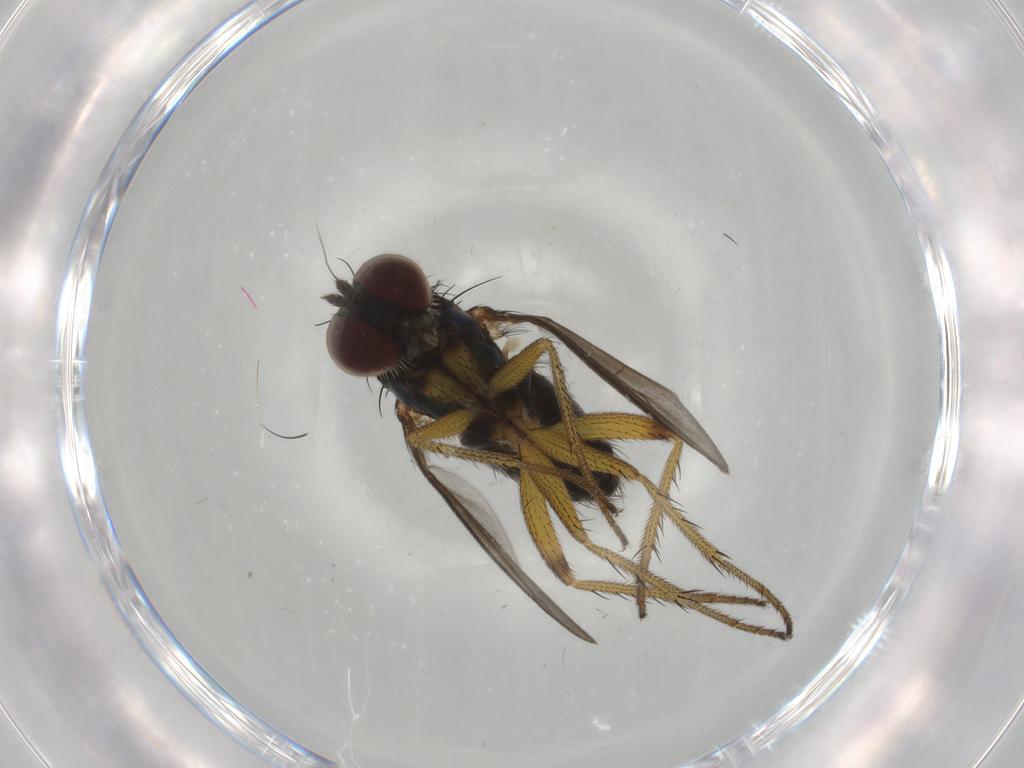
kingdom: Animalia
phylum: Arthropoda
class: Insecta
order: Diptera
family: Dolichopodidae
